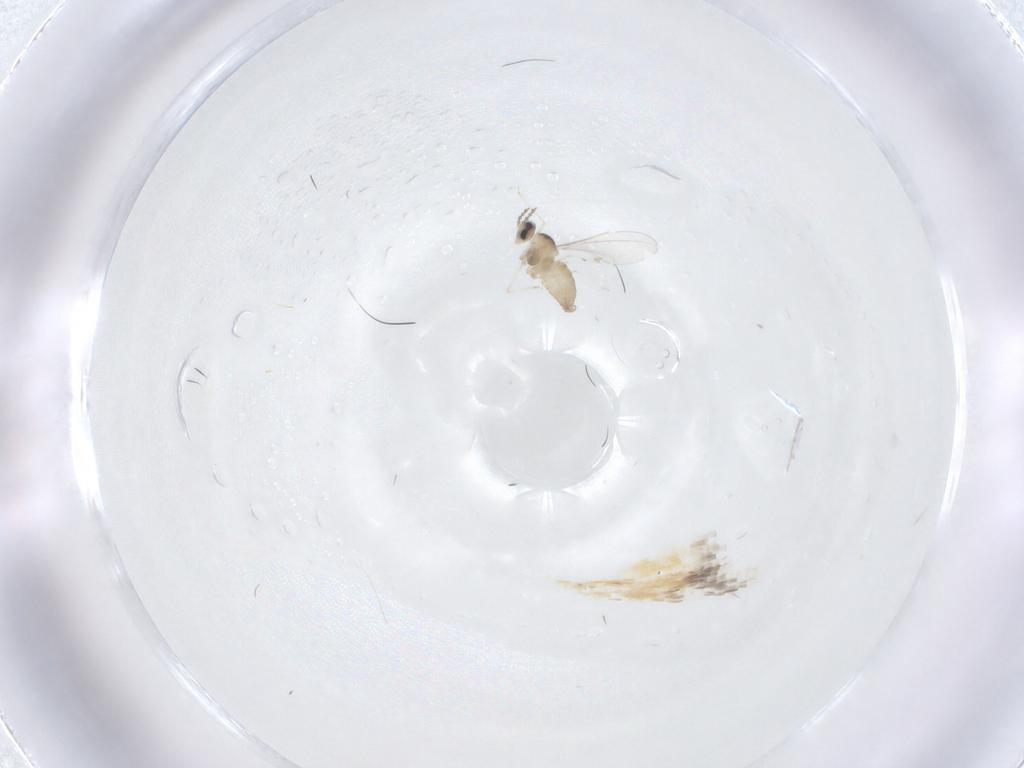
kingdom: Animalia
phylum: Arthropoda
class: Insecta
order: Diptera
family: Cecidomyiidae
